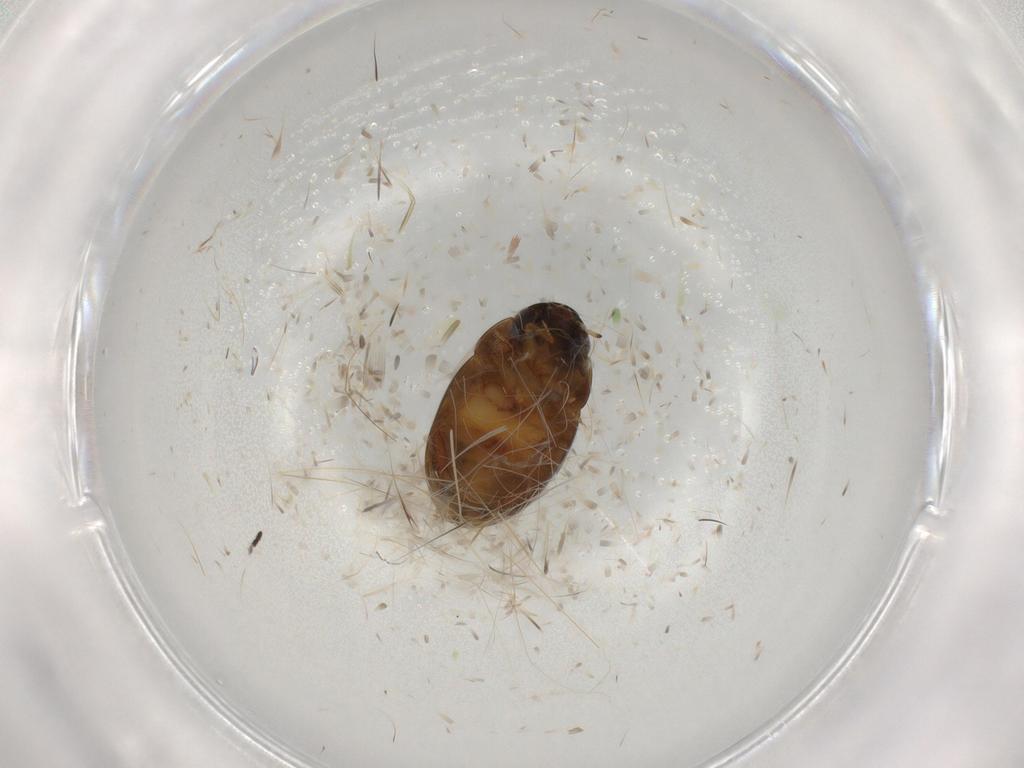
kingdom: Animalia
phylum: Arthropoda
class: Insecta
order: Coleoptera
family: Hydrophilidae
